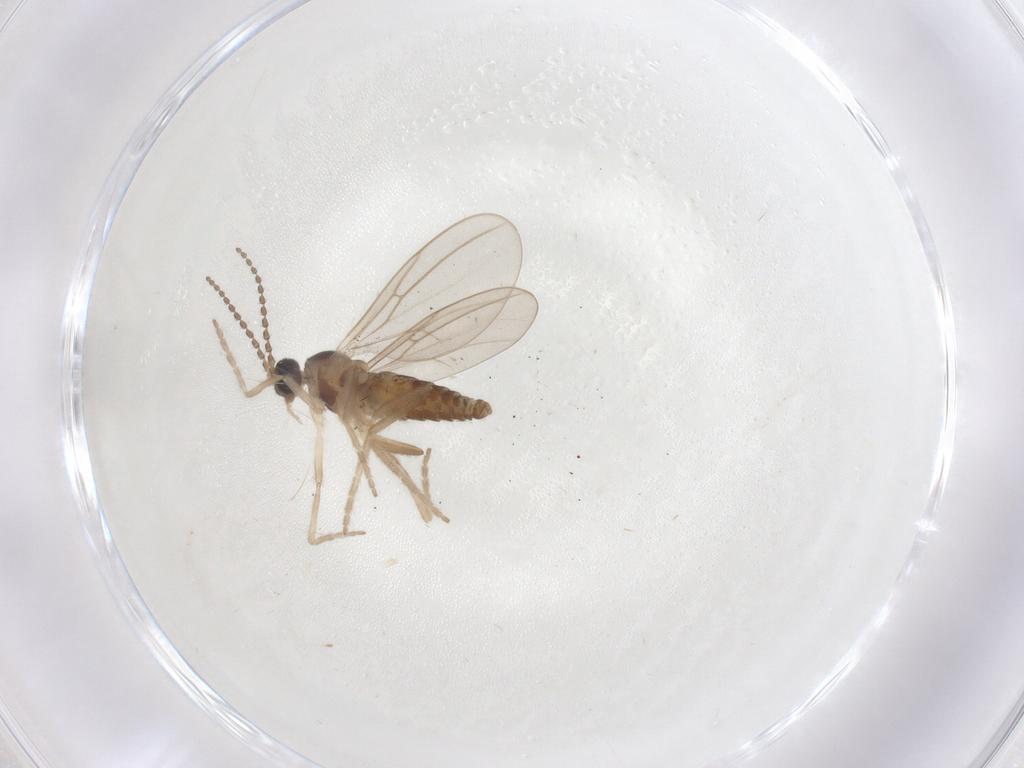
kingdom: Animalia
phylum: Arthropoda
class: Insecta
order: Diptera
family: Cecidomyiidae
